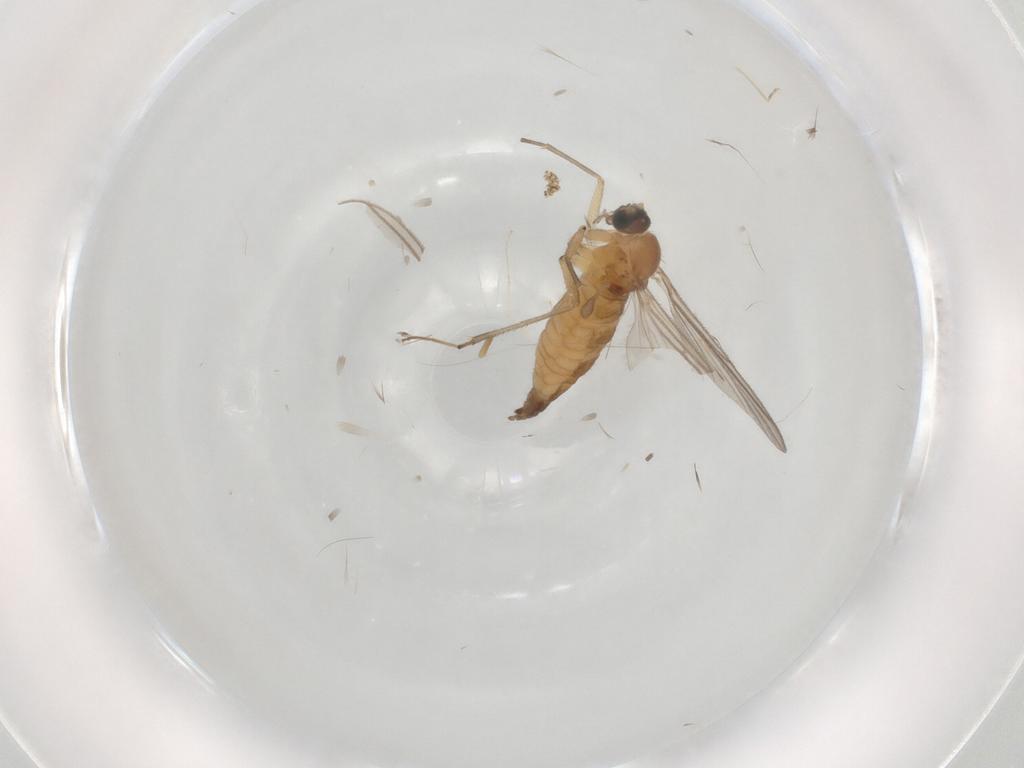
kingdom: Animalia
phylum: Arthropoda
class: Insecta
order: Diptera
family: Sciaridae
